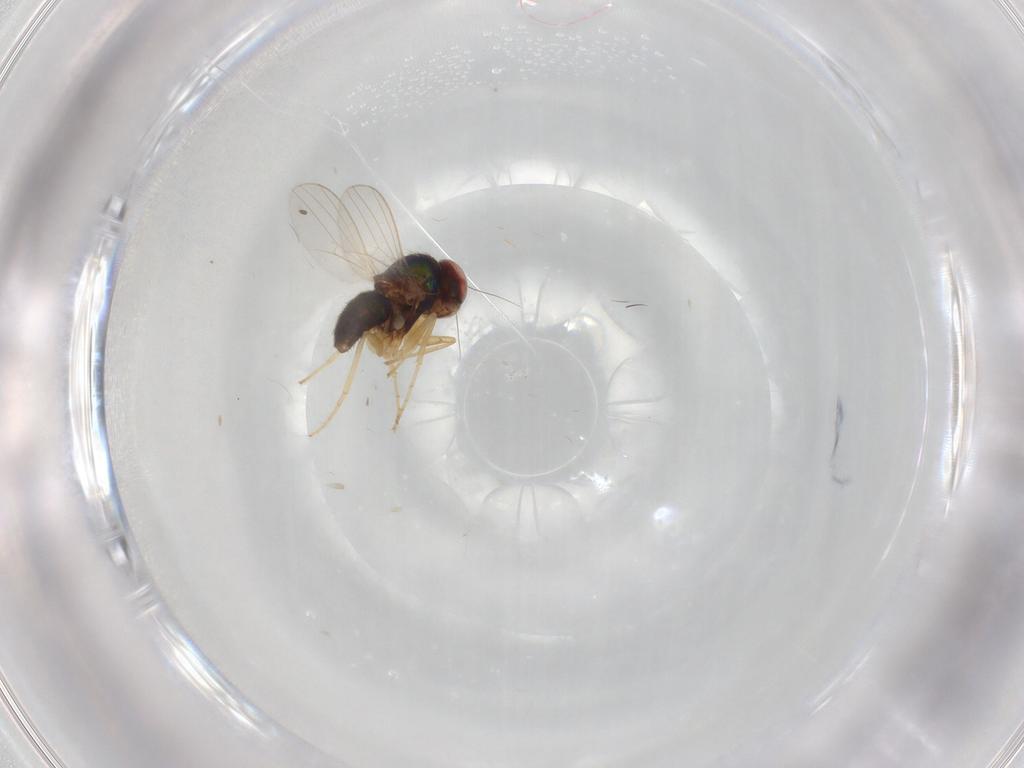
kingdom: Animalia
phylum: Arthropoda
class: Insecta
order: Diptera
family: Dolichopodidae
